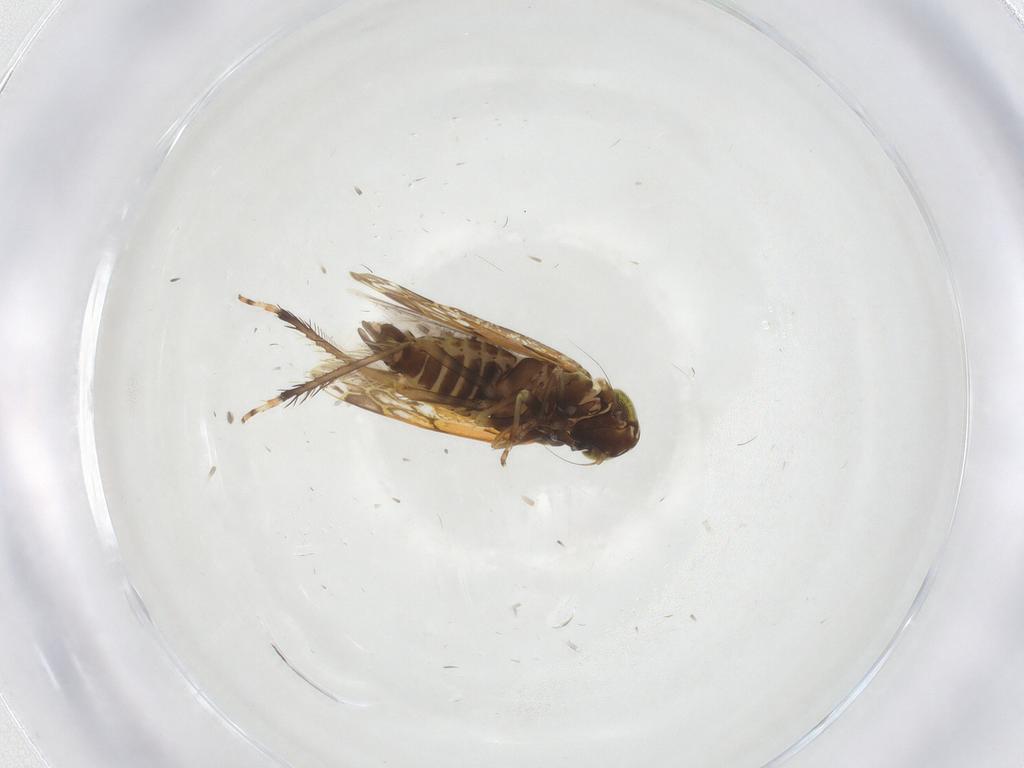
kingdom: Animalia
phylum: Arthropoda
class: Insecta
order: Hemiptera
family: Cicadellidae
